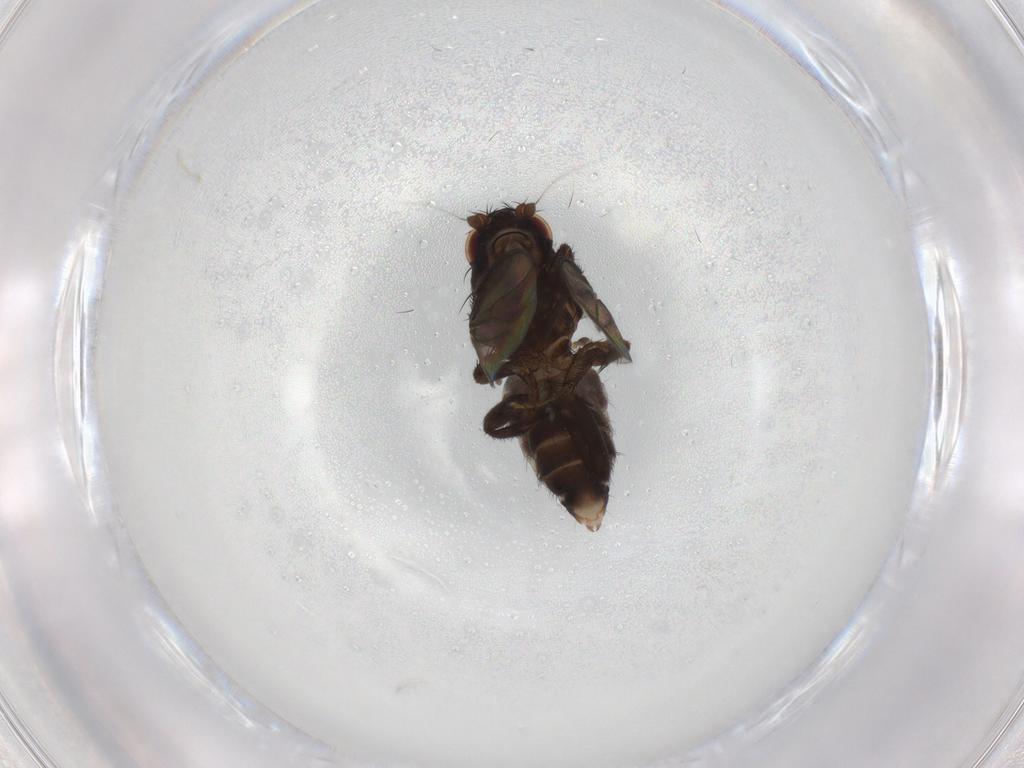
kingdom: Animalia
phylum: Arthropoda
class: Insecta
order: Diptera
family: Sphaeroceridae
